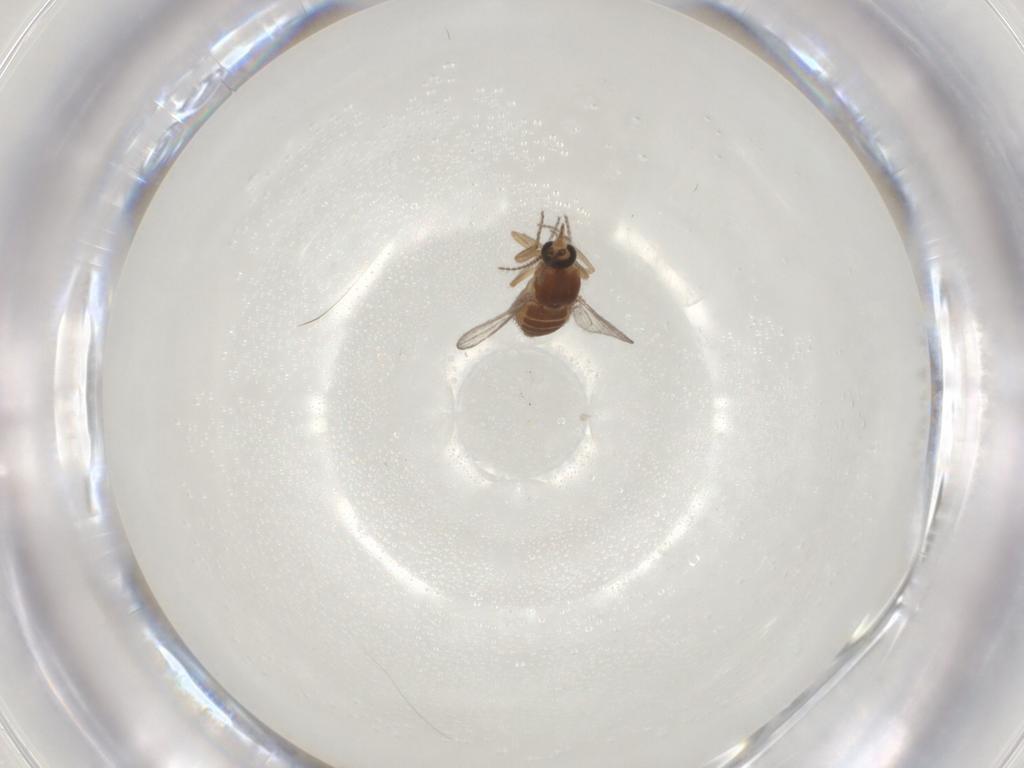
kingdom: Animalia
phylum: Arthropoda
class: Insecta
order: Diptera
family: Ceratopogonidae
